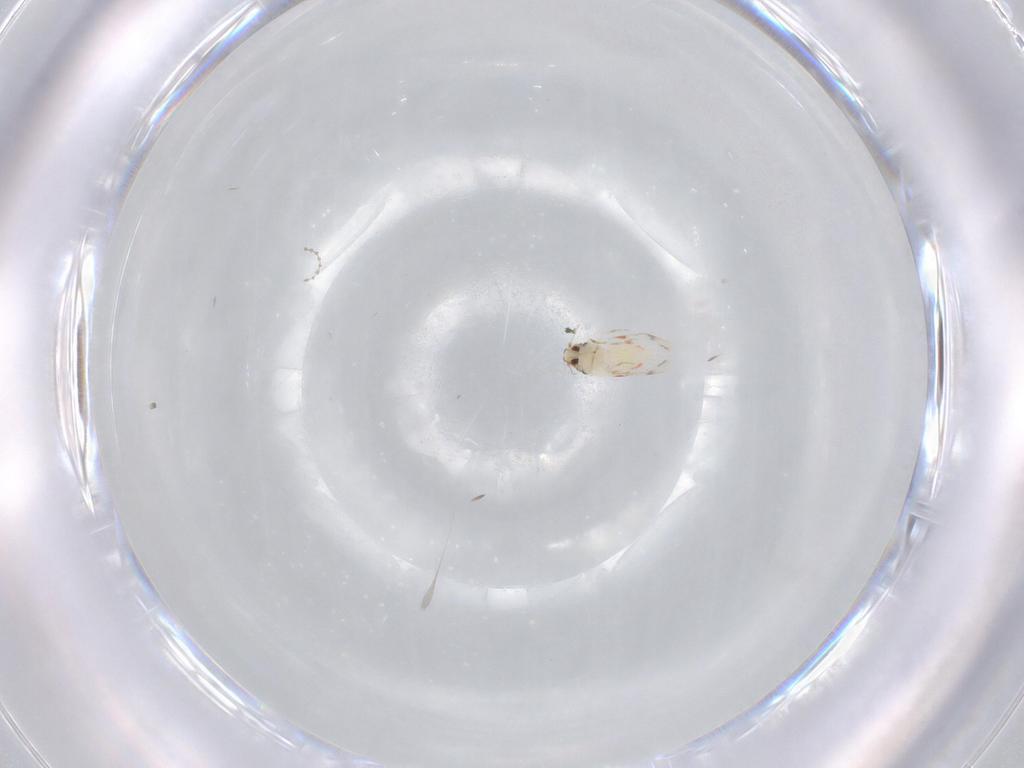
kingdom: Animalia
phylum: Arthropoda
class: Insecta
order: Hemiptera
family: Aleyrodidae
